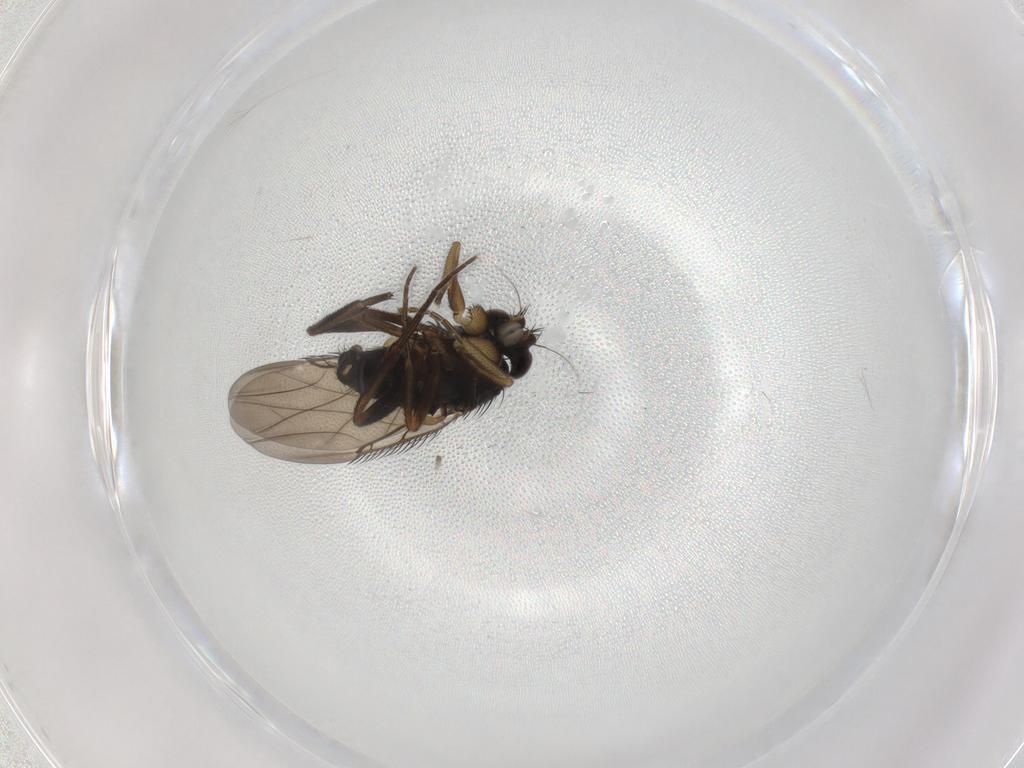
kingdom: Animalia
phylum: Arthropoda
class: Insecta
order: Diptera
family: Phoridae
